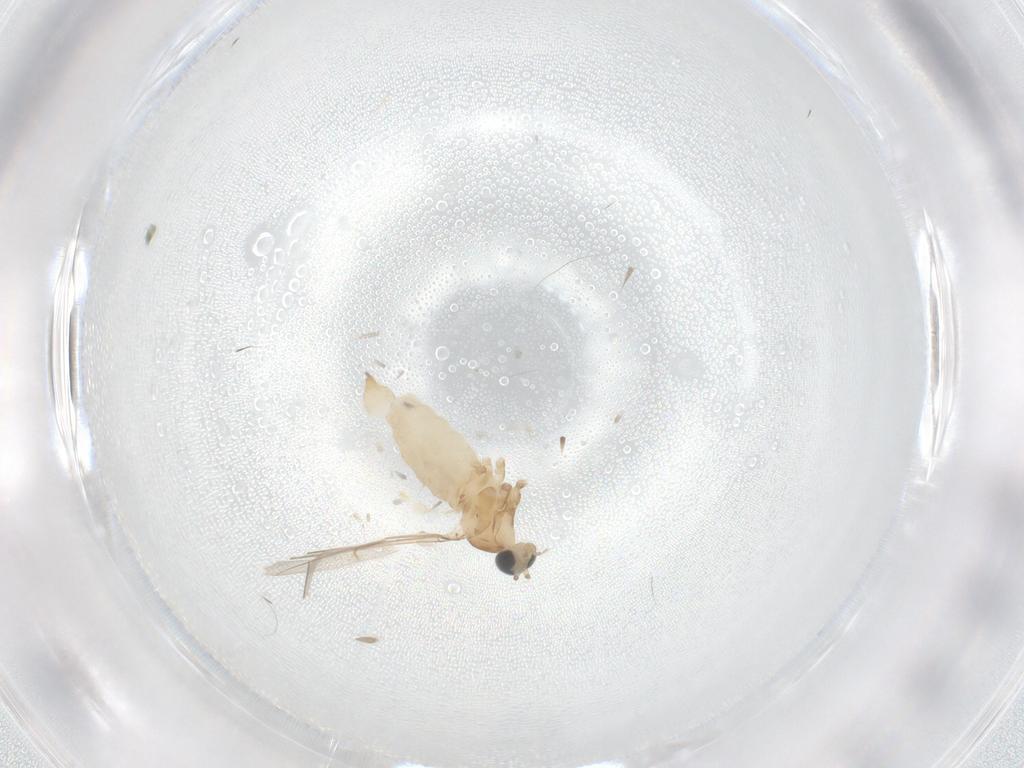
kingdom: Animalia
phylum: Arthropoda
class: Insecta
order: Diptera
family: Cecidomyiidae
